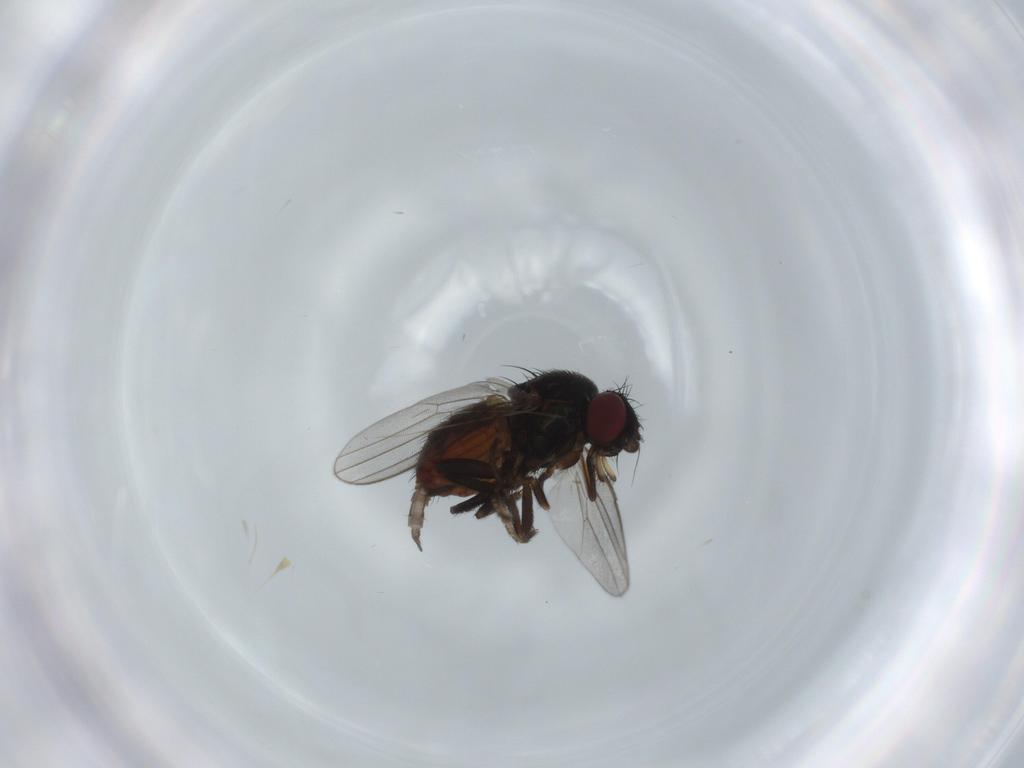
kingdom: Animalia
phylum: Arthropoda
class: Insecta
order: Diptera
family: Milichiidae
